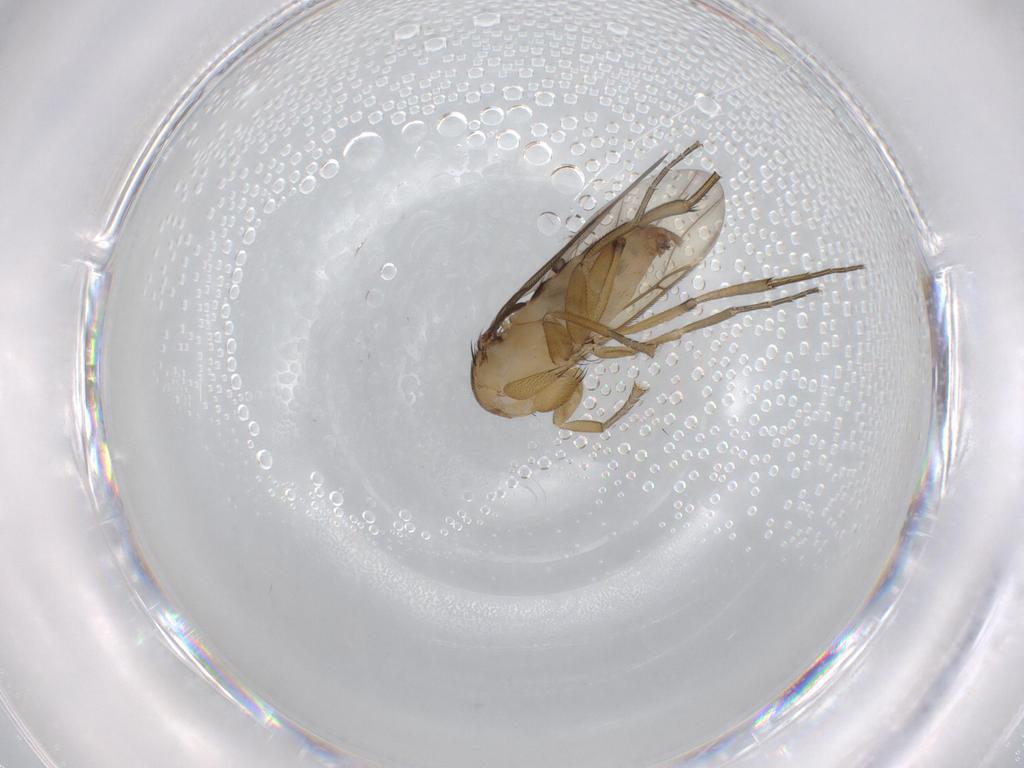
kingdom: Animalia
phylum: Arthropoda
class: Insecta
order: Diptera
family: Phoridae
